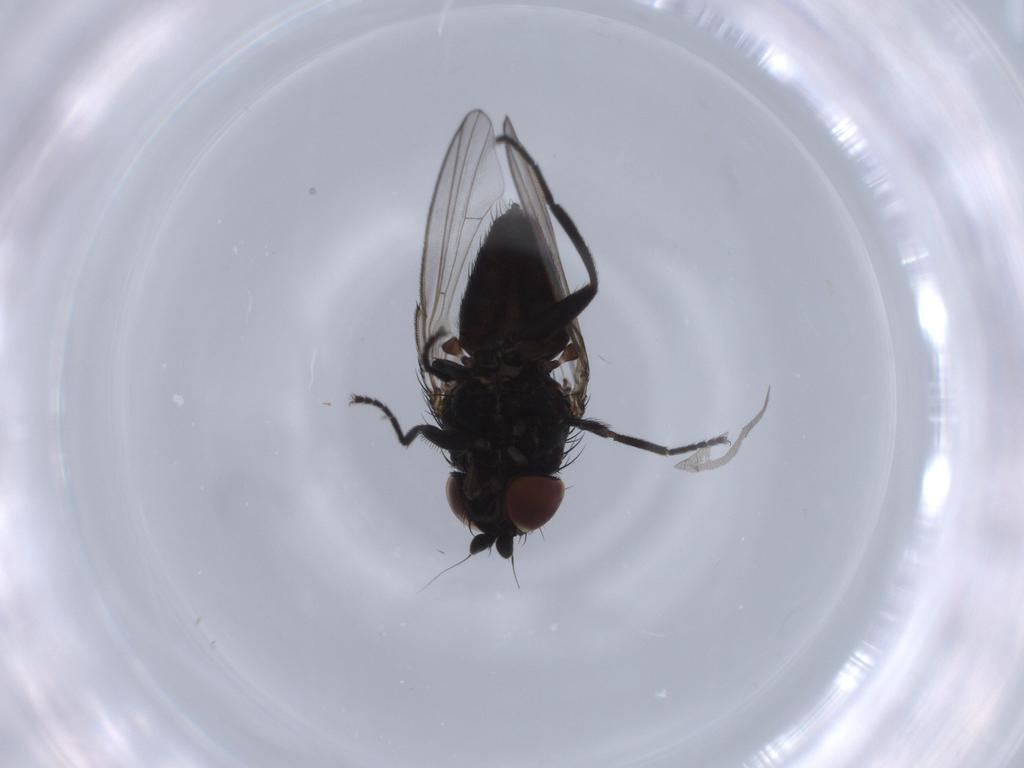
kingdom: Animalia
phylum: Arthropoda
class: Insecta
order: Diptera
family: Milichiidae
